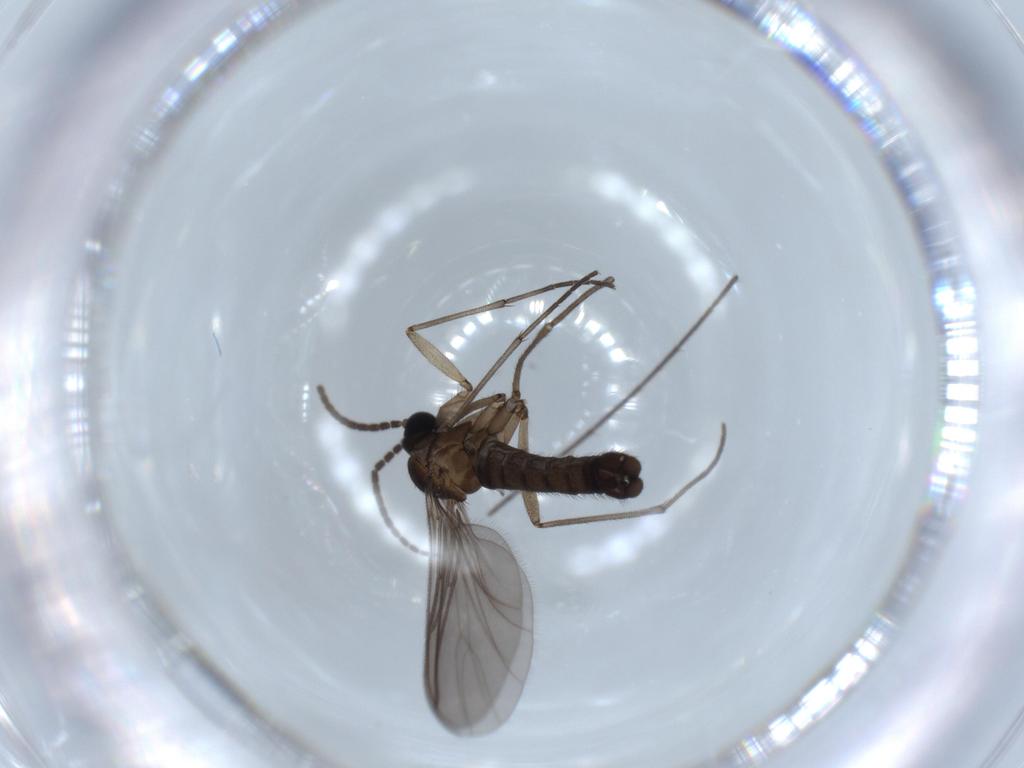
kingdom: Animalia
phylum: Arthropoda
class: Insecta
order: Diptera
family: Sciaridae
